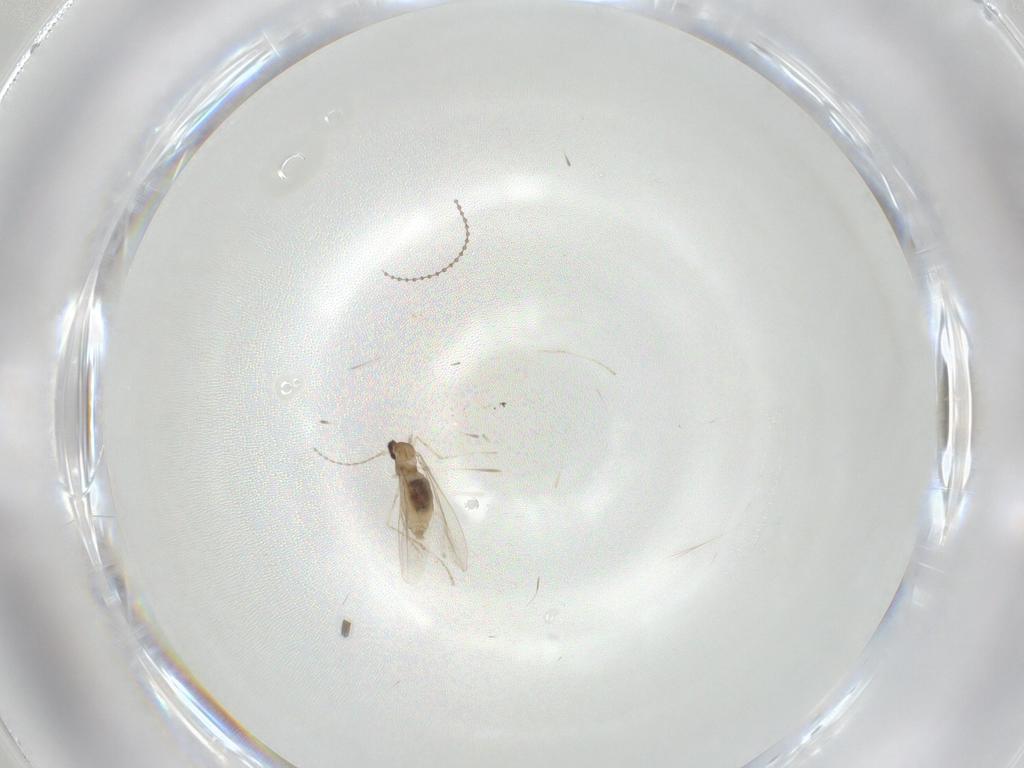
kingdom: Animalia
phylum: Arthropoda
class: Insecta
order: Diptera
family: Cecidomyiidae
